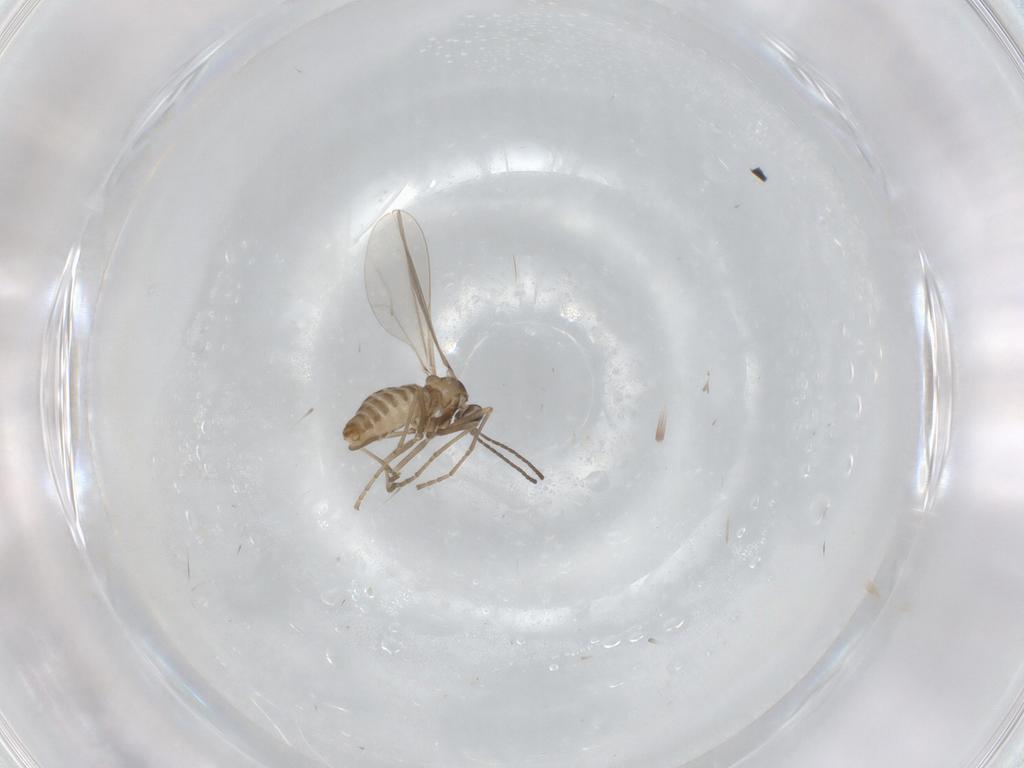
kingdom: Animalia
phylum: Arthropoda
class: Insecta
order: Diptera
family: Cecidomyiidae
